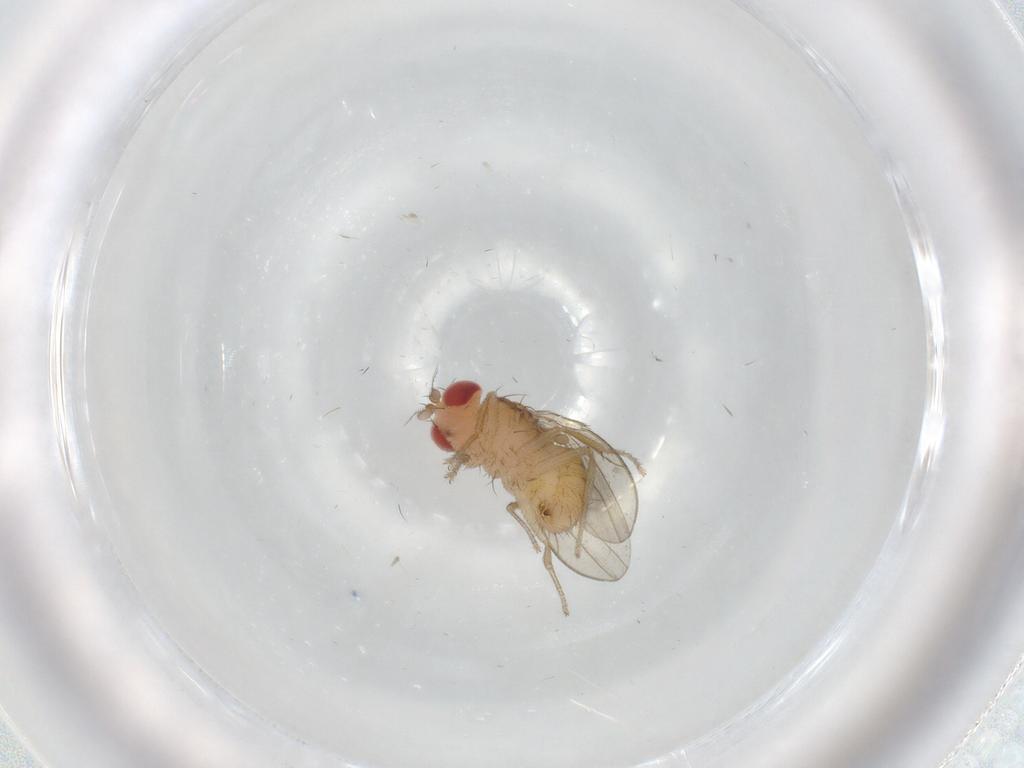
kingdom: Animalia
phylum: Arthropoda
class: Insecta
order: Diptera
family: Drosophilidae
